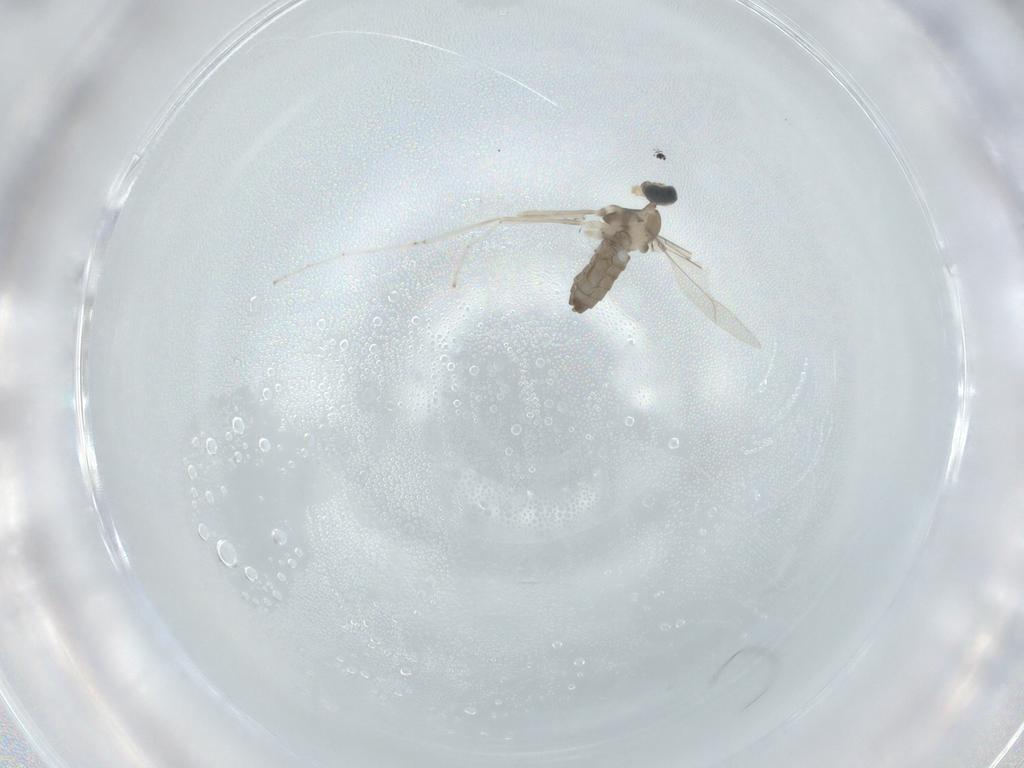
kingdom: Animalia
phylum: Arthropoda
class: Insecta
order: Diptera
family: Cecidomyiidae
